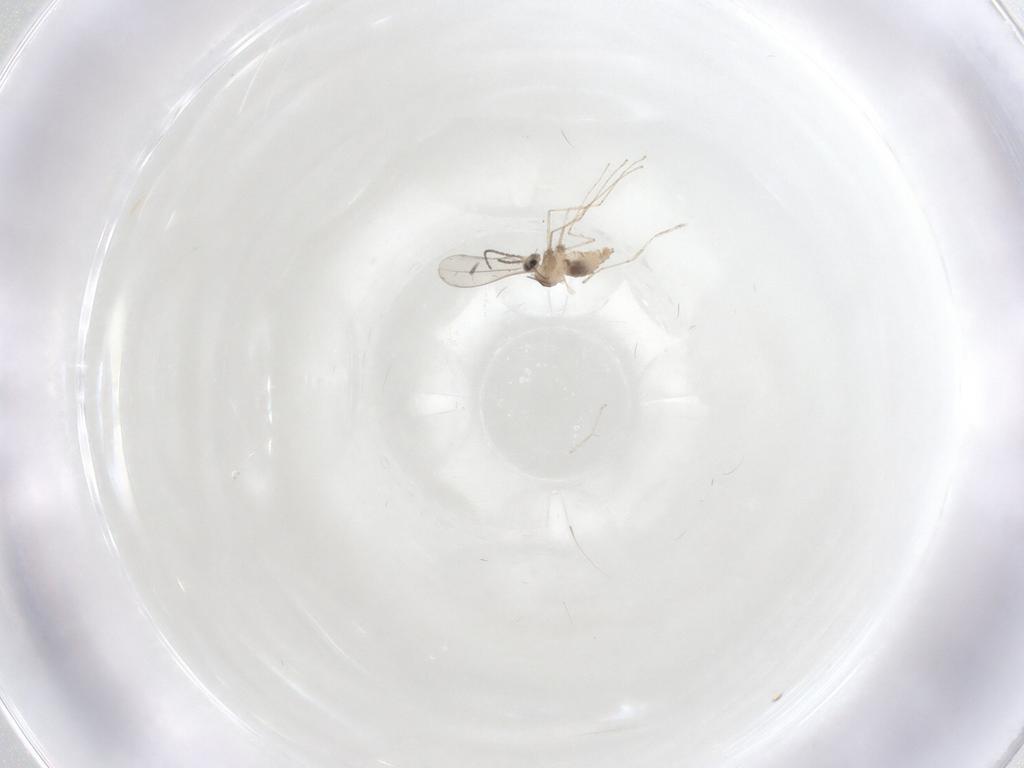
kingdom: Animalia
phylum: Arthropoda
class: Insecta
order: Diptera
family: Cecidomyiidae
